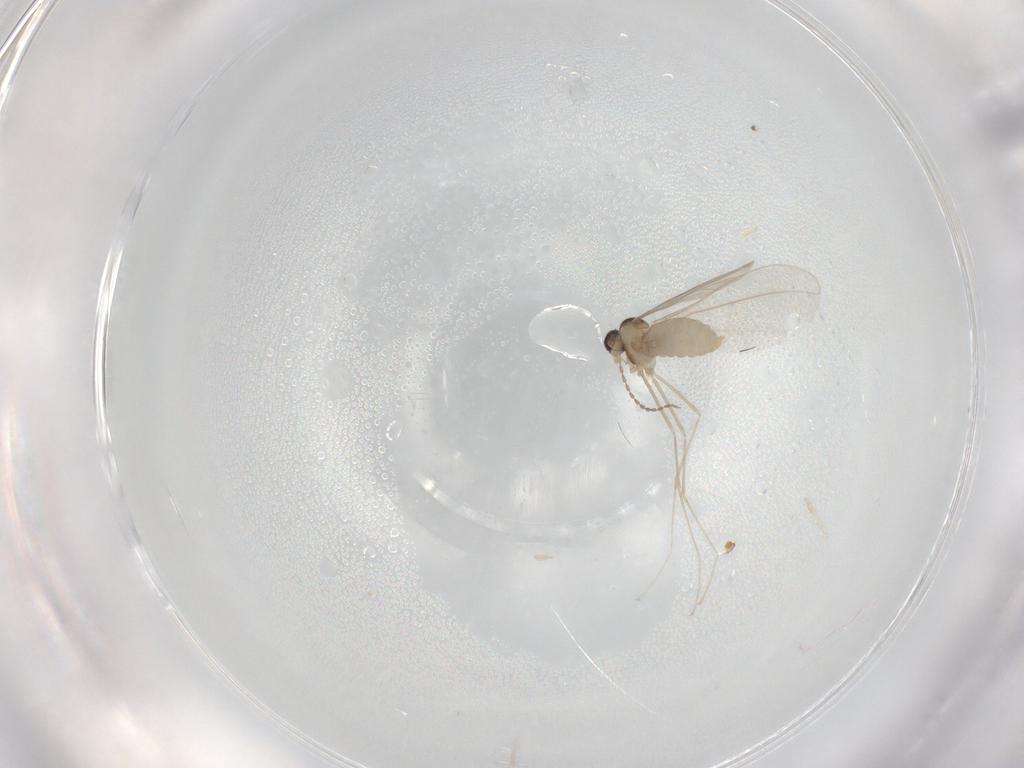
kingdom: Animalia
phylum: Arthropoda
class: Insecta
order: Diptera
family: Cecidomyiidae
